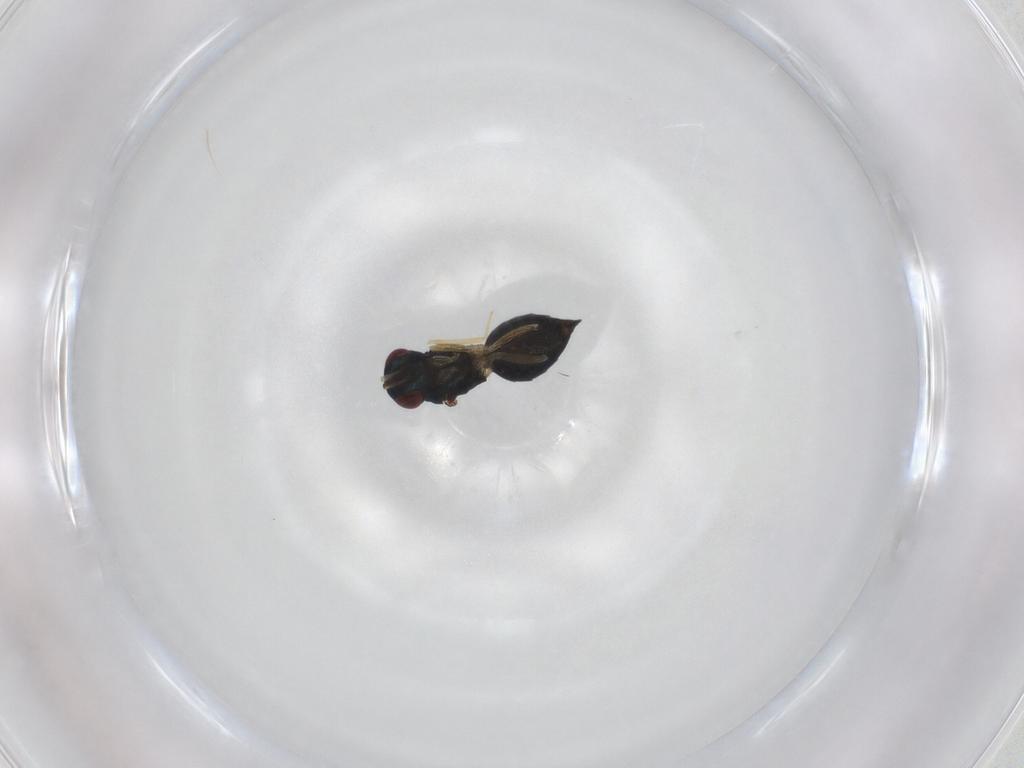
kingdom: Animalia
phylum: Arthropoda
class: Insecta
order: Hymenoptera
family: Eulophidae
